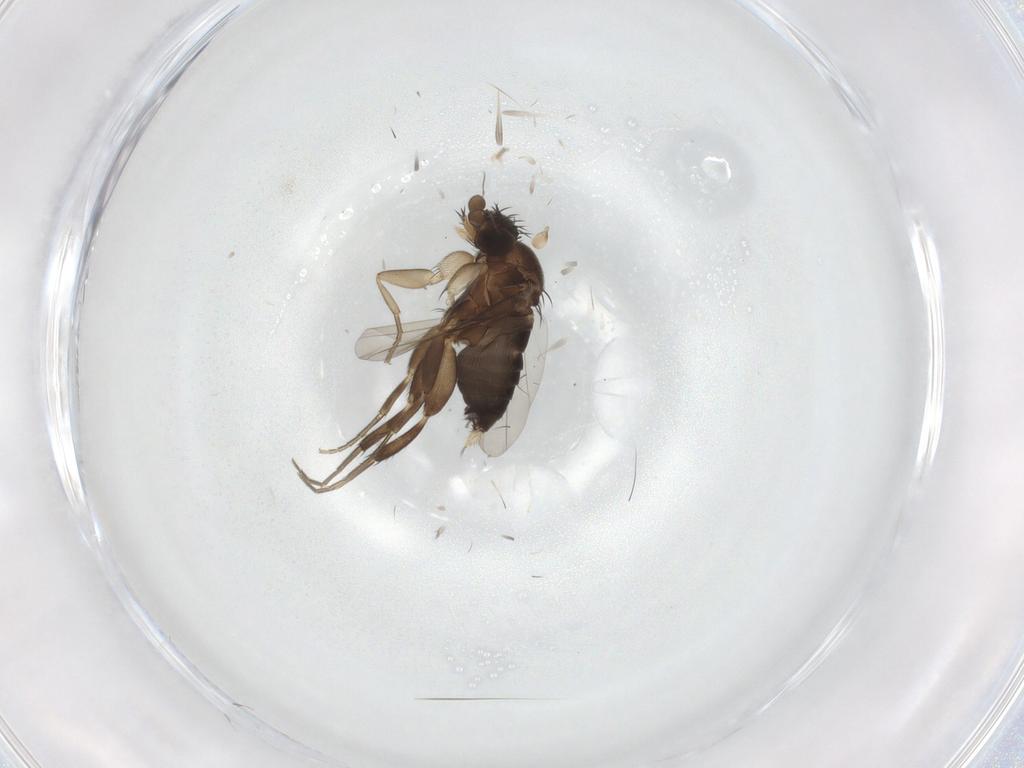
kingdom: Animalia
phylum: Arthropoda
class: Insecta
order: Diptera
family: Phoridae
